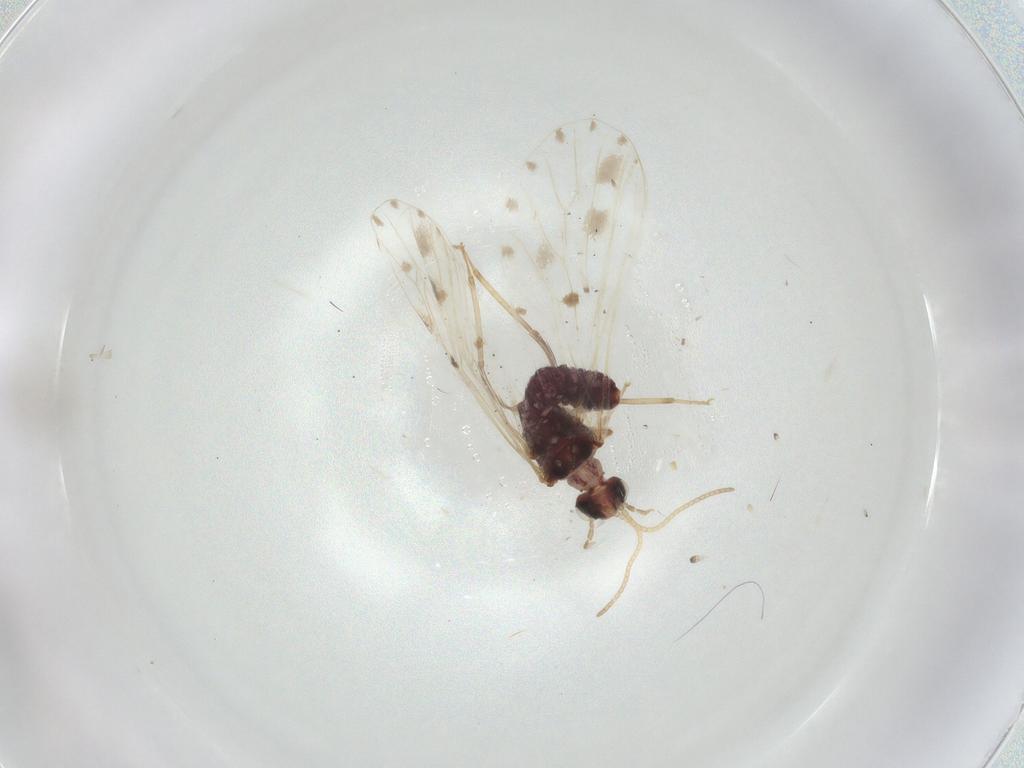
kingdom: Animalia
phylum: Arthropoda
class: Insecta
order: Neuroptera
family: Coniopterygidae
